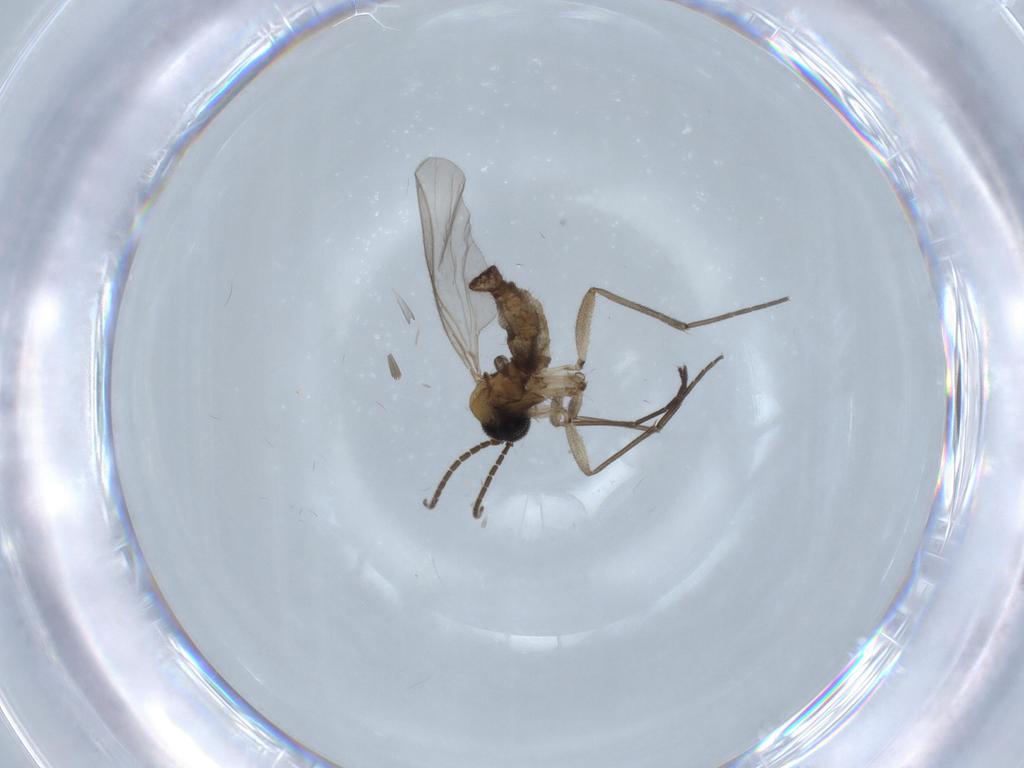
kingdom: Animalia
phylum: Arthropoda
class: Insecta
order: Diptera
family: Sciaridae
